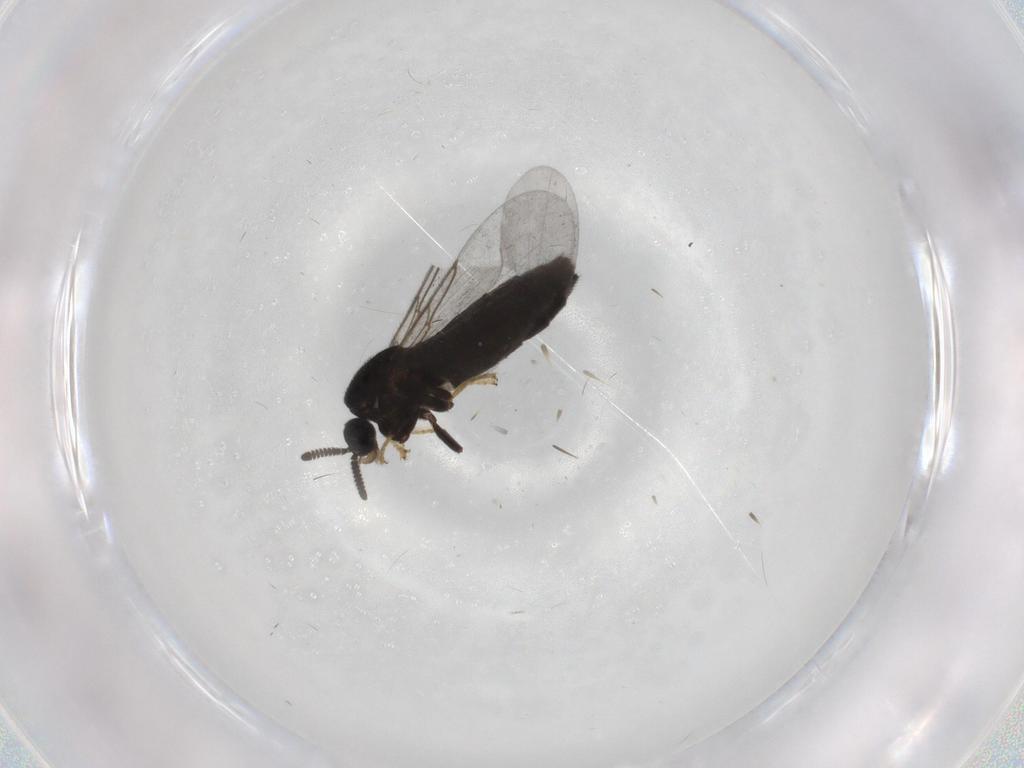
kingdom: Animalia
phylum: Arthropoda
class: Insecta
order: Diptera
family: Scatopsidae
